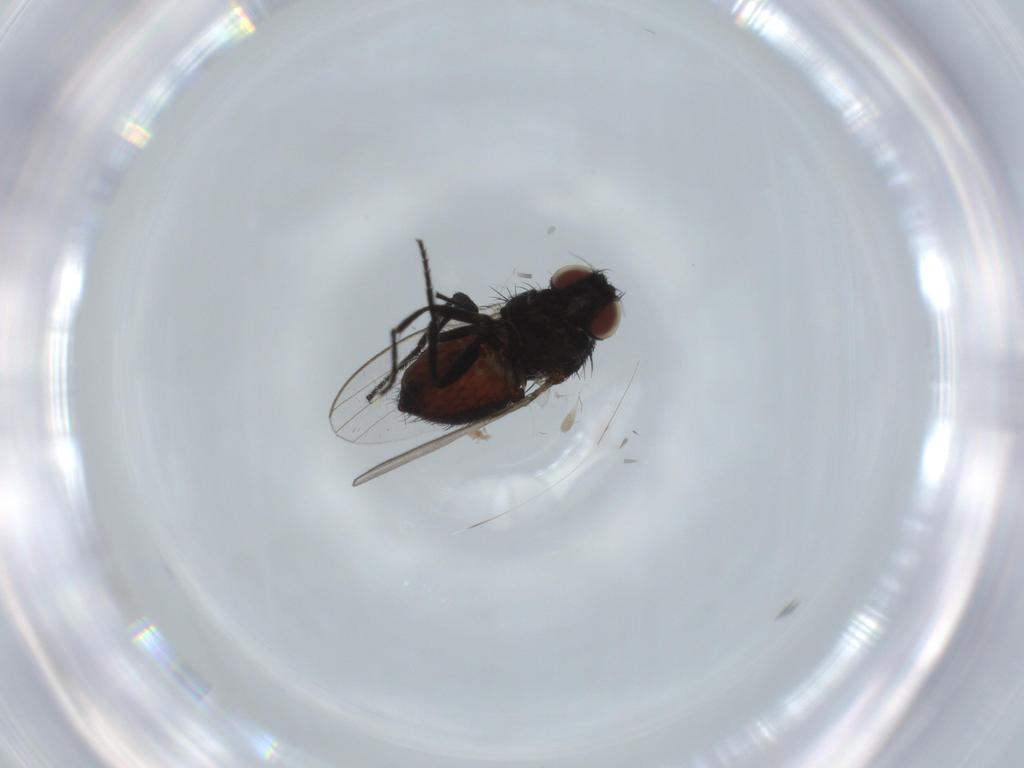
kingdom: Animalia
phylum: Arthropoda
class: Insecta
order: Diptera
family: Milichiidae
